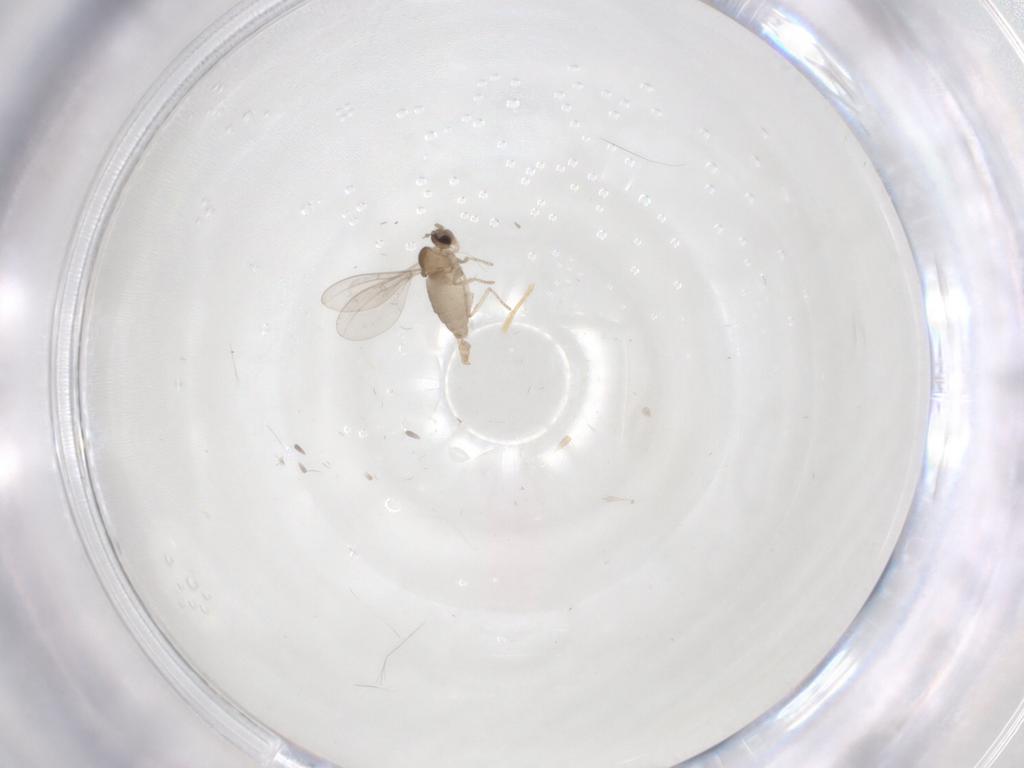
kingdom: Animalia
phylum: Arthropoda
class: Insecta
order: Diptera
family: Cecidomyiidae
